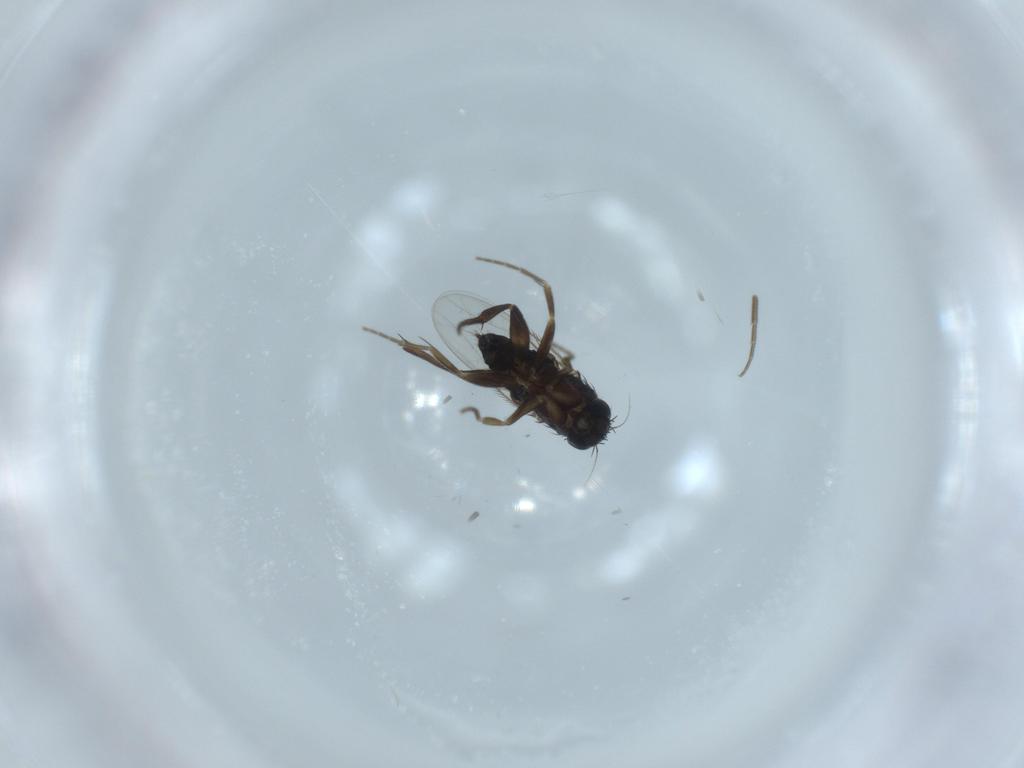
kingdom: Animalia
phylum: Arthropoda
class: Insecta
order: Diptera
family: Phoridae
